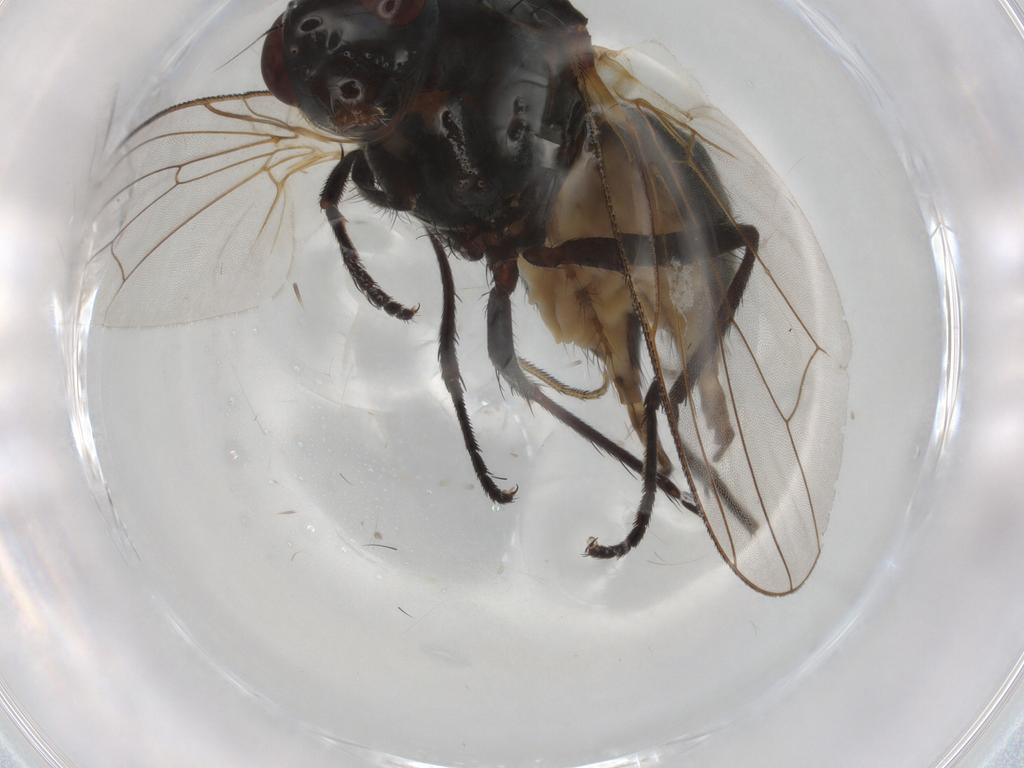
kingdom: Animalia
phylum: Arthropoda
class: Insecta
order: Diptera
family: Anthomyiidae
